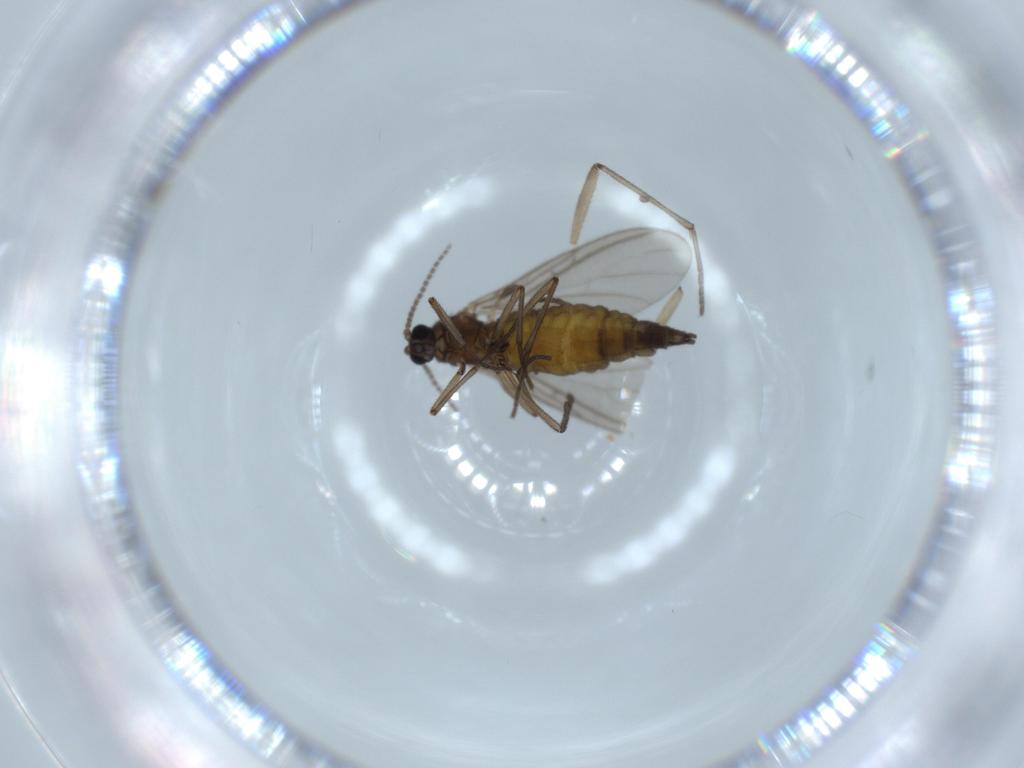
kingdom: Animalia
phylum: Arthropoda
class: Insecta
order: Diptera
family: Sciaridae
